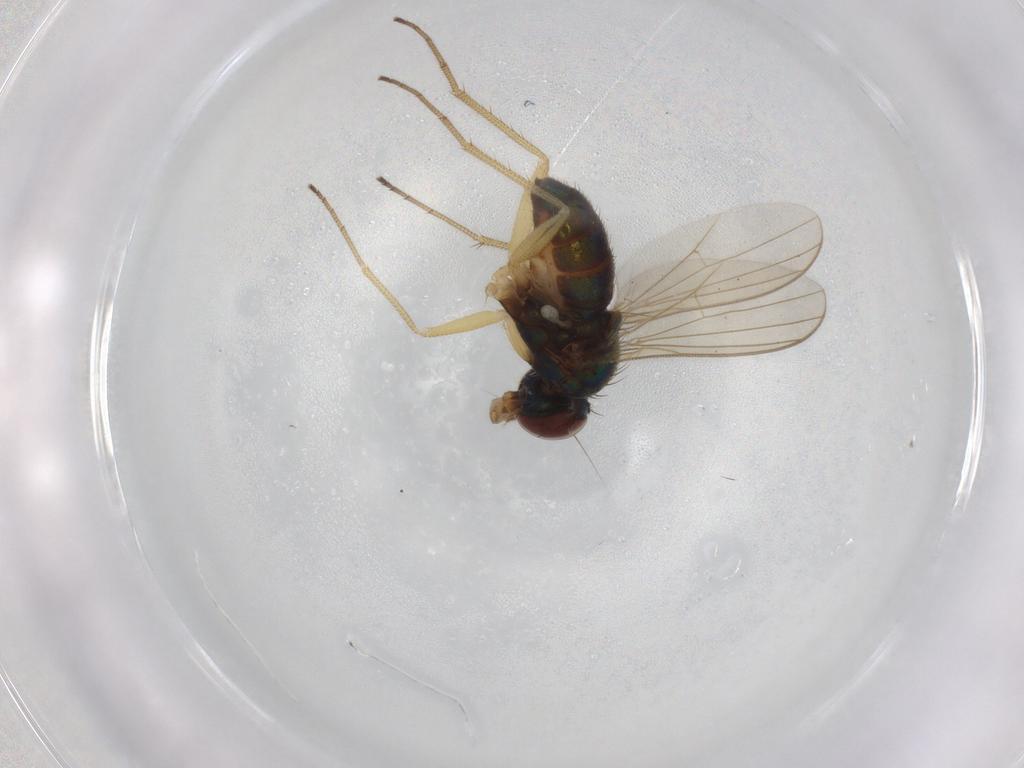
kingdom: Animalia
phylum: Arthropoda
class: Insecta
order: Diptera
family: Dolichopodidae
